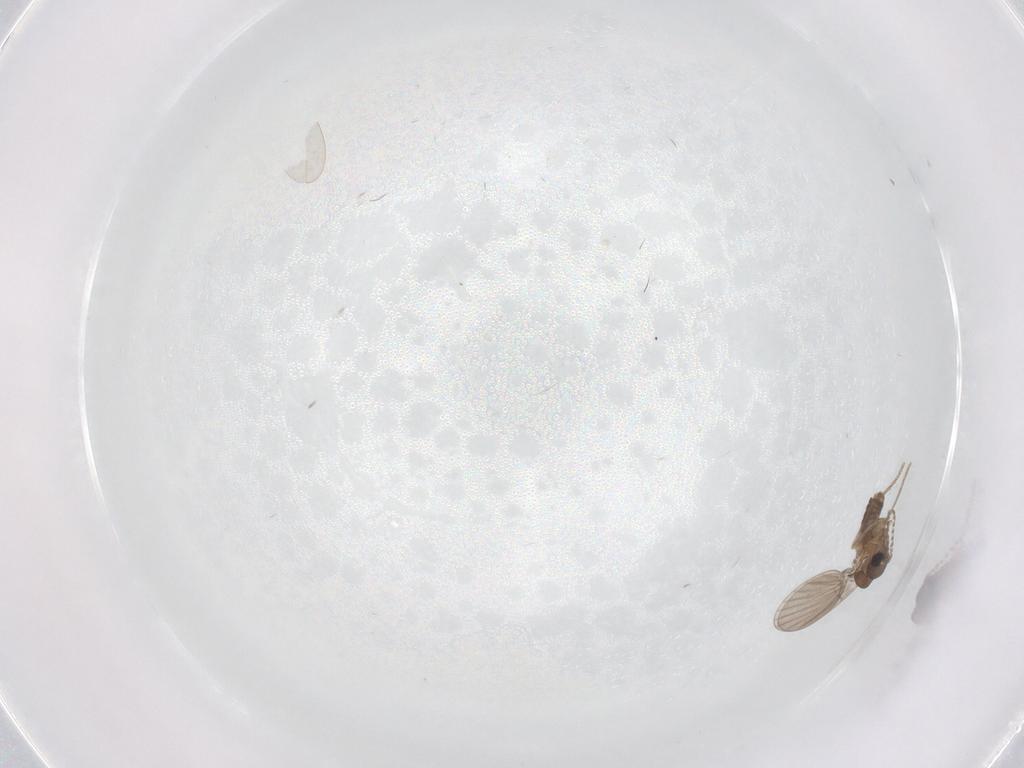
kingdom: Animalia
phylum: Arthropoda
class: Insecta
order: Diptera
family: Cecidomyiidae
